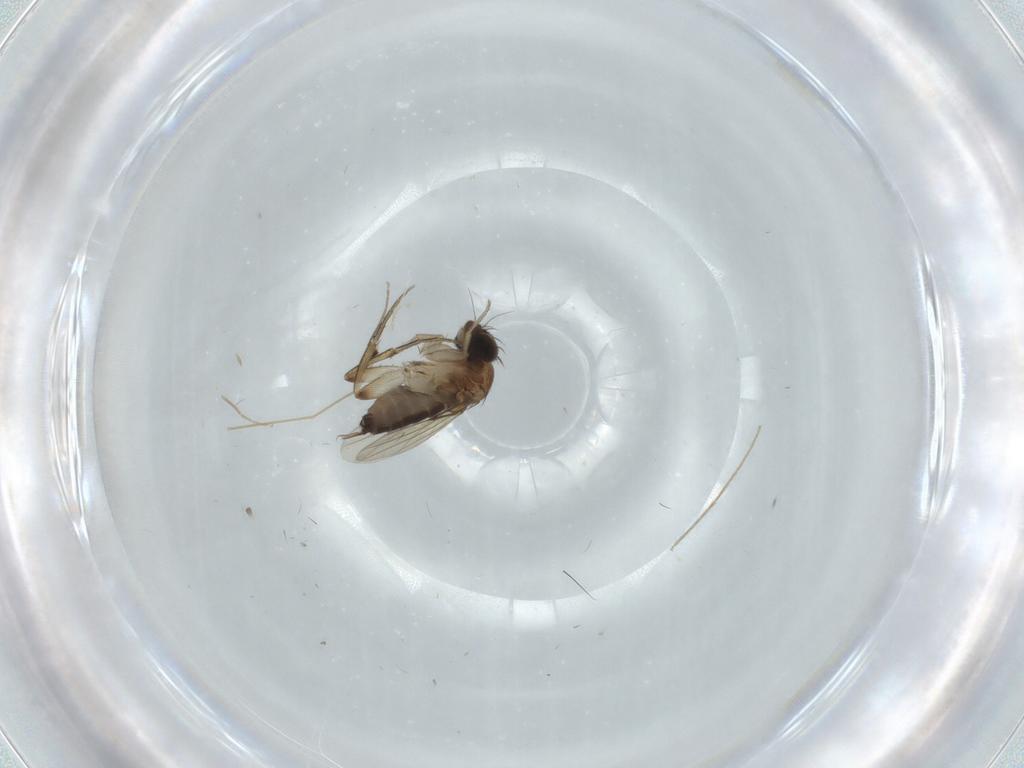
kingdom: Animalia
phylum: Arthropoda
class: Insecta
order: Diptera
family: Phoridae
